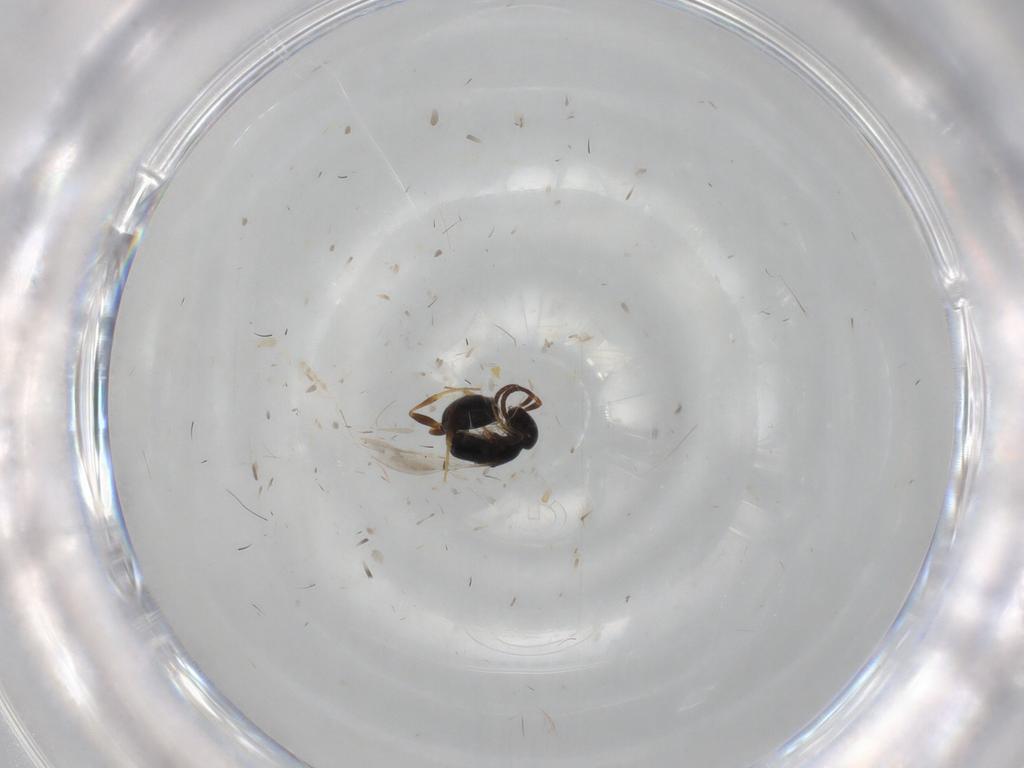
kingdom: Animalia
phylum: Arthropoda
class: Insecta
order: Hymenoptera
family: Bethylidae
